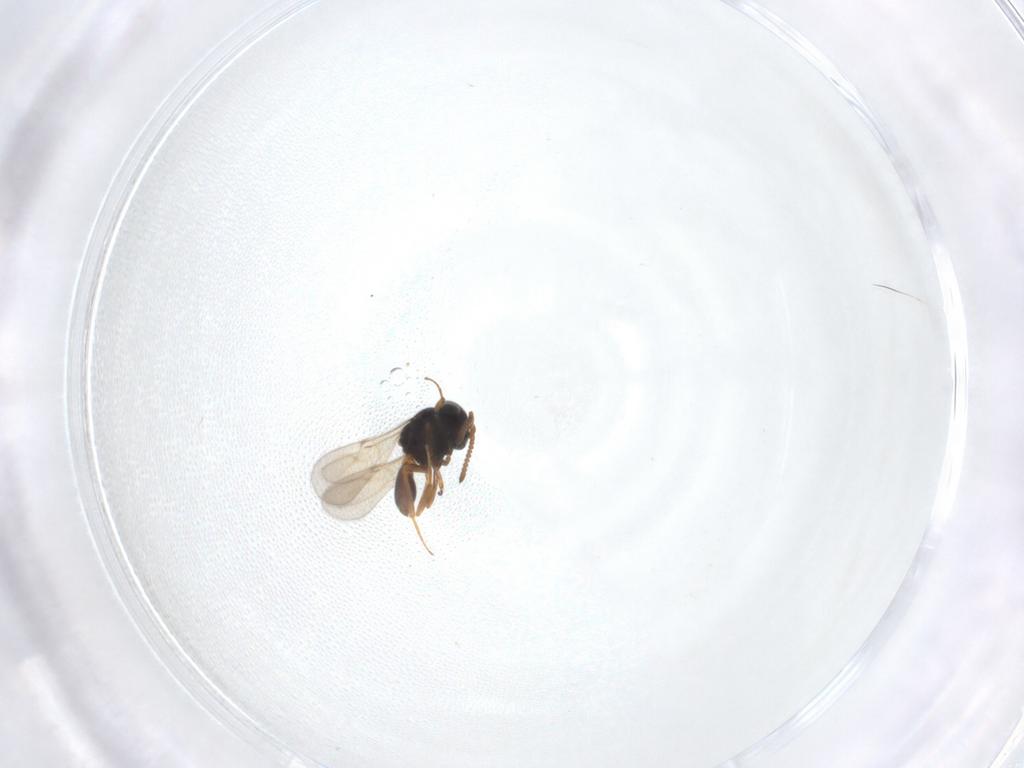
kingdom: Animalia
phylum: Arthropoda
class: Insecta
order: Hymenoptera
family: Scelionidae
